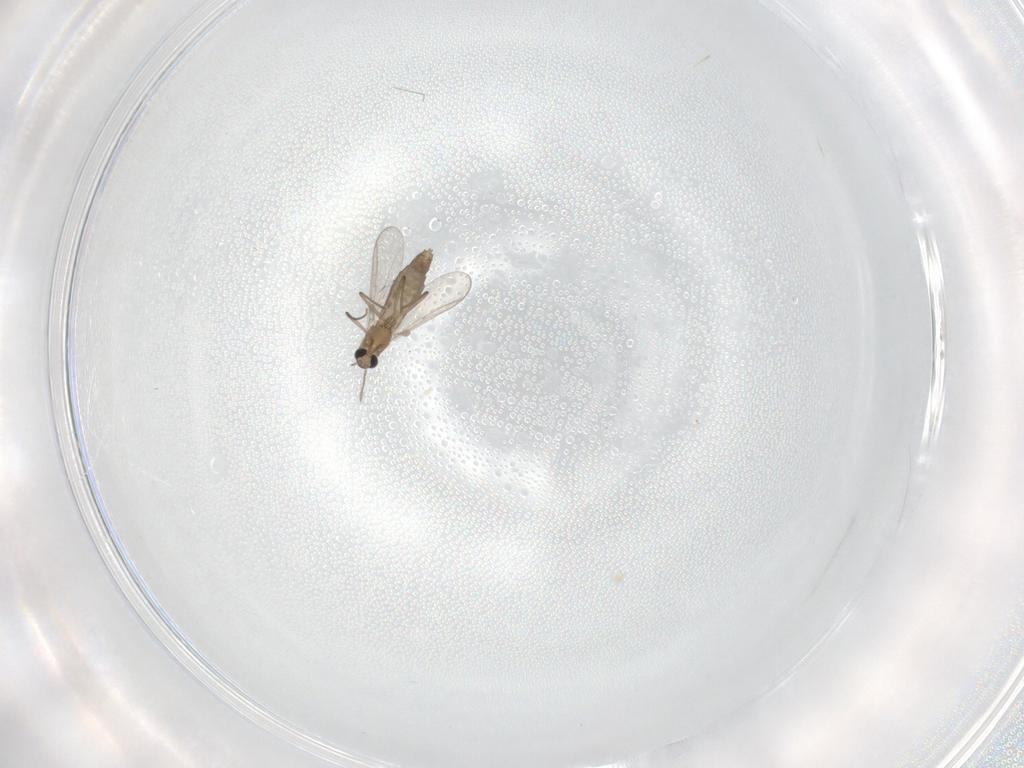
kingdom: Animalia
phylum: Arthropoda
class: Insecta
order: Diptera
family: Chironomidae
